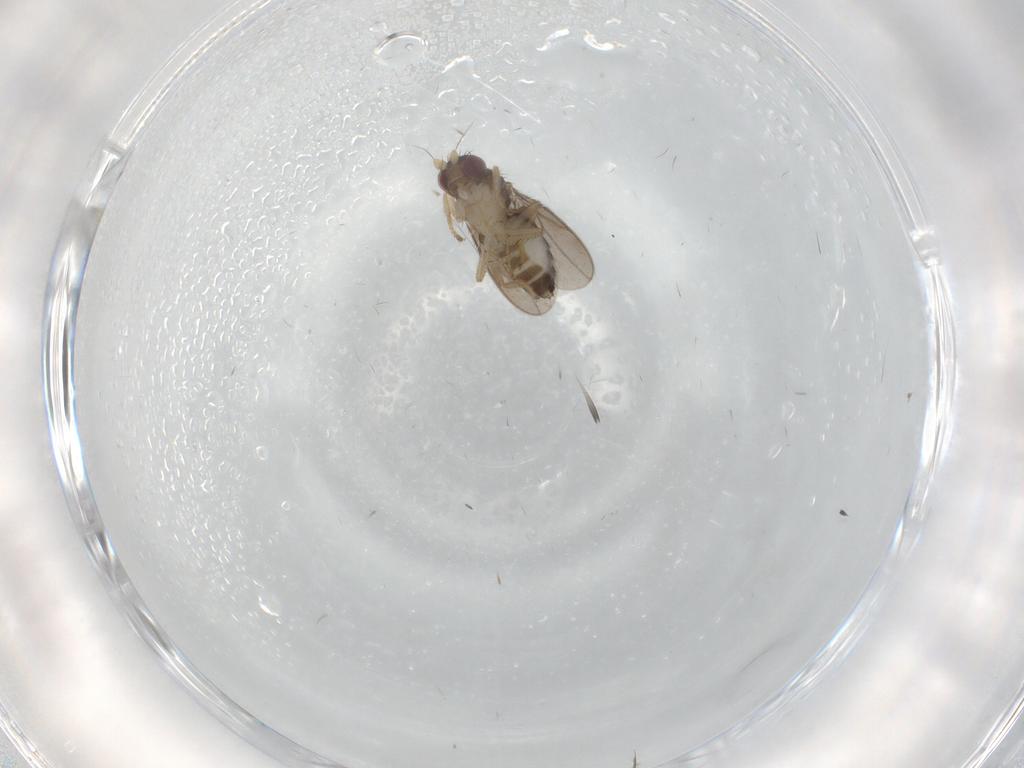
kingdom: Animalia
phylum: Arthropoda
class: Insecta
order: Diptera
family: Sphaeroceridae
